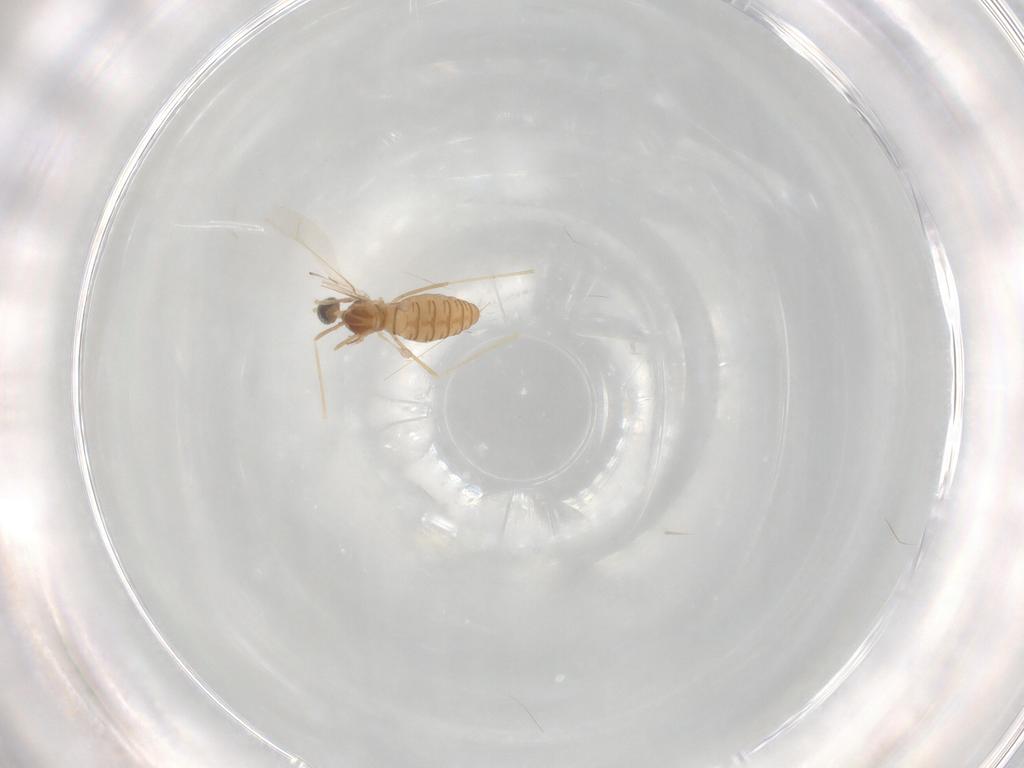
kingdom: Animalia
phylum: Arthropoda
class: Insecta
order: Diptera
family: Cecidomyiidae
